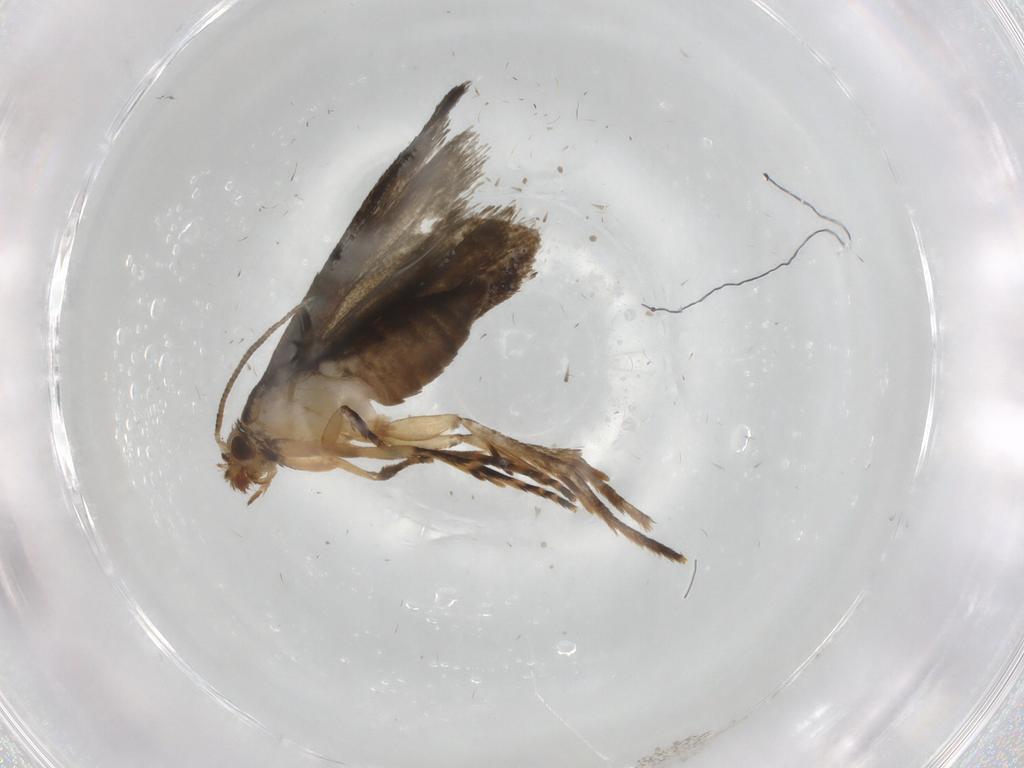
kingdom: Animalia
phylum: Arthropoda
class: Insecta
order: Lepidoptera
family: Crambidae
